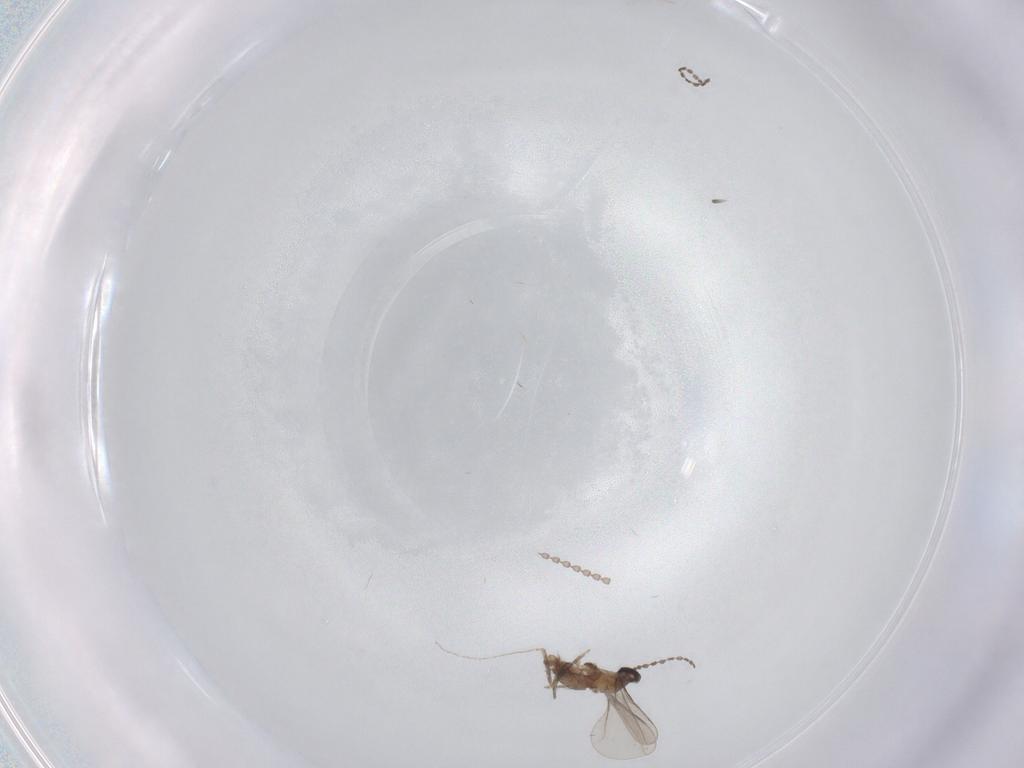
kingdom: Animalia
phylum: Arthropoda
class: Insecta
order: Diptera
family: Cecidomyiidae
